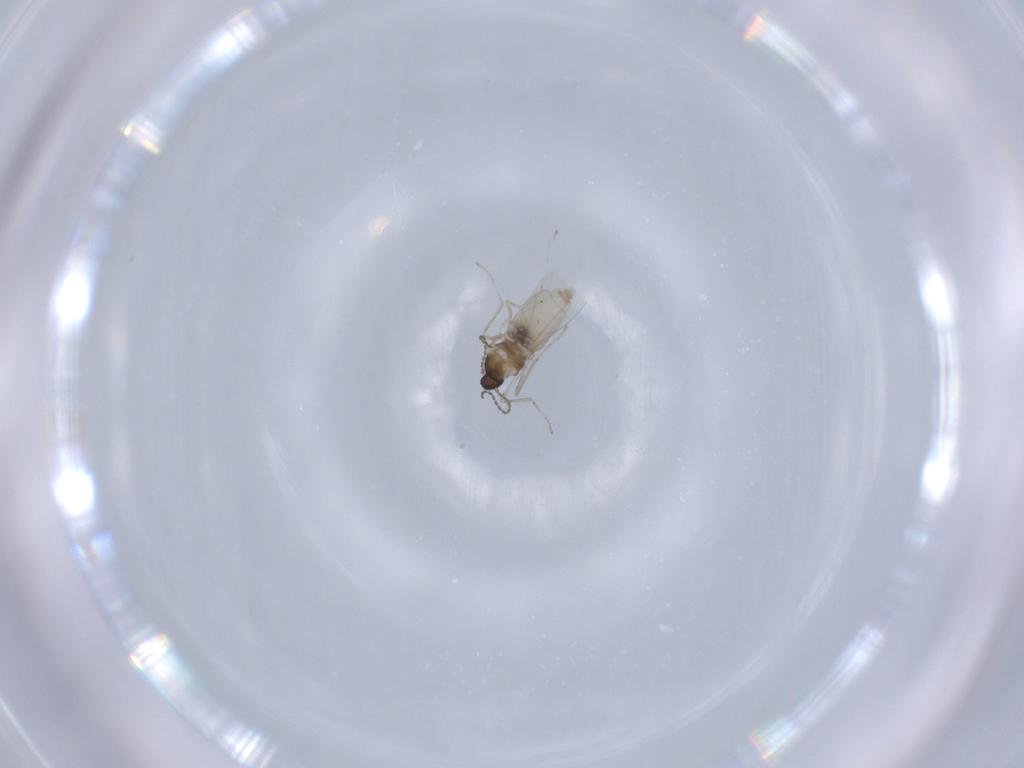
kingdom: Animalia
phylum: Arthropoda
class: Insecta
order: Diptera
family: Cecidomyiidae
